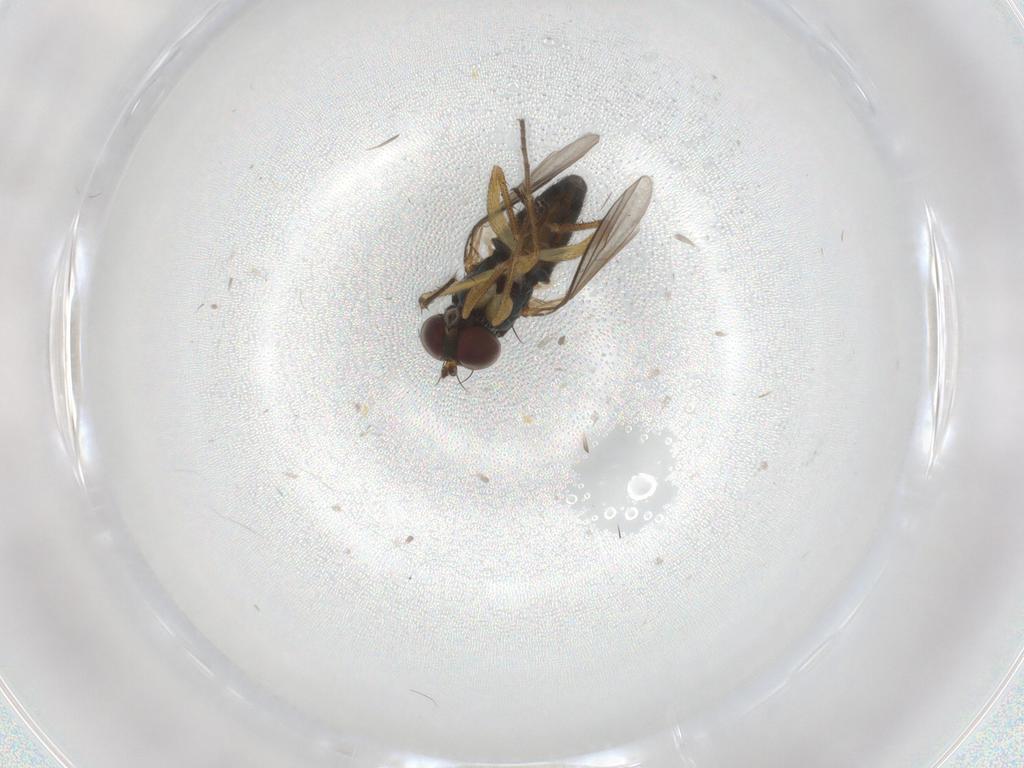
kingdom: Animalia
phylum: Arthropoda
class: Insecta
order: Diptera
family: Dolichopodidae
